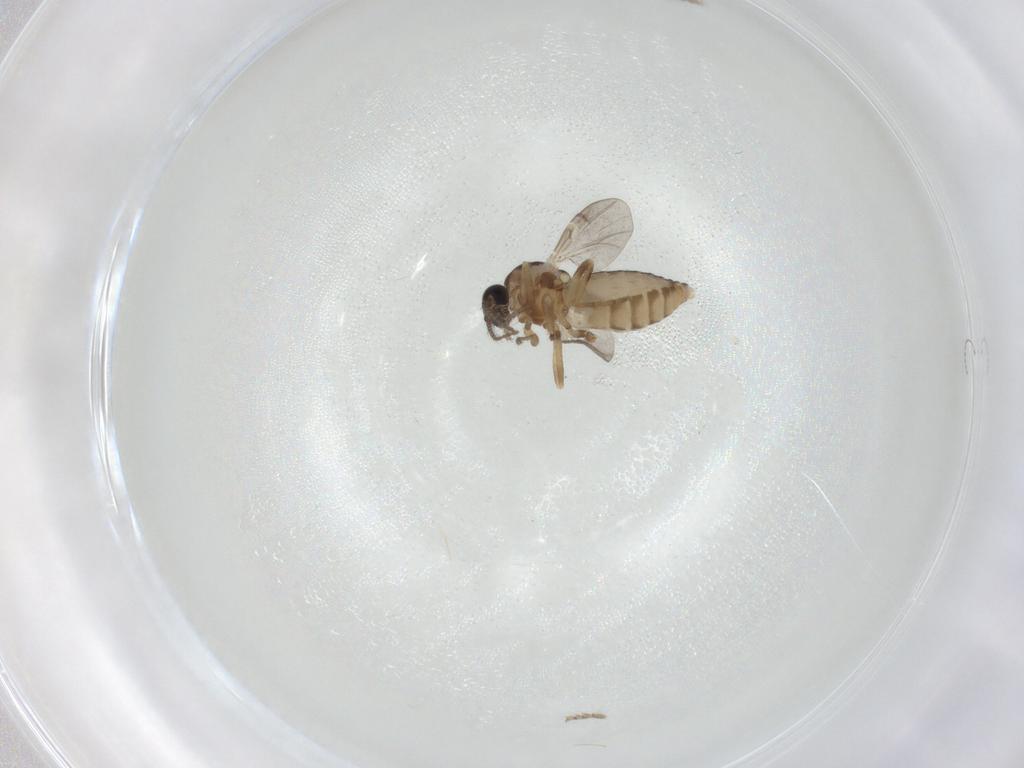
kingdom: Animalia
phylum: Arthropoda
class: Insecta
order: Diptera
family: Ceratopogonidae
